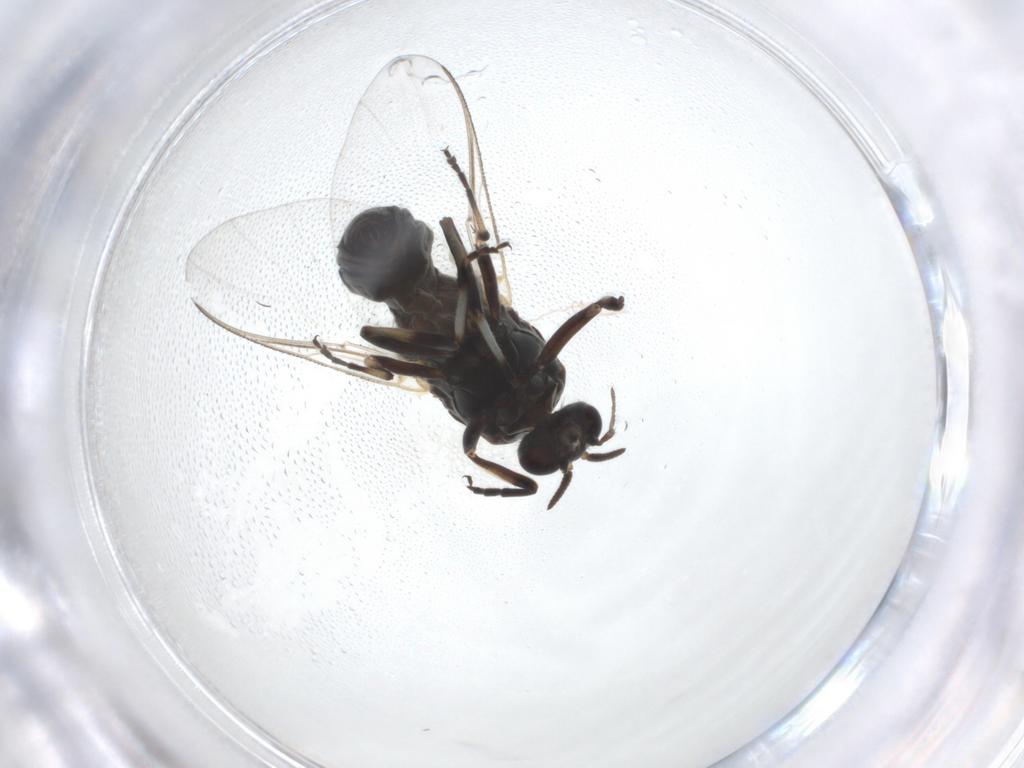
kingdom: Animalia
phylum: Arthropoda
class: Insecta
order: Diptera
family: Simuliidae
